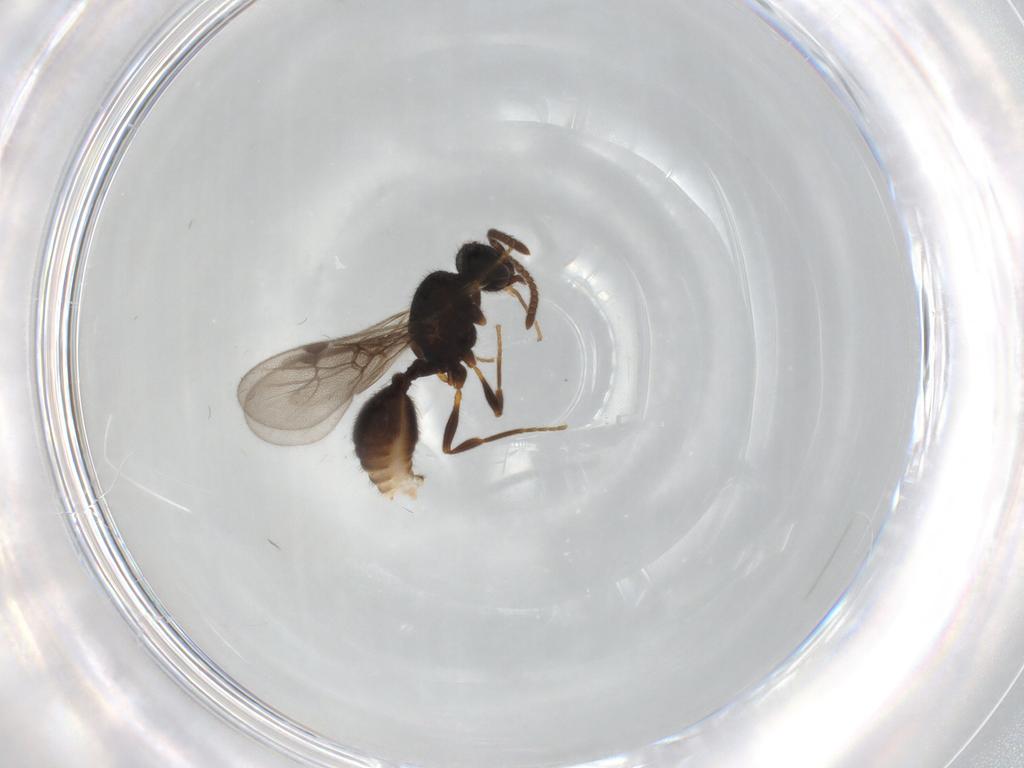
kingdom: Animalia
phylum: Arthropoda
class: Insecta
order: Hymenoptera
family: Formicidae
